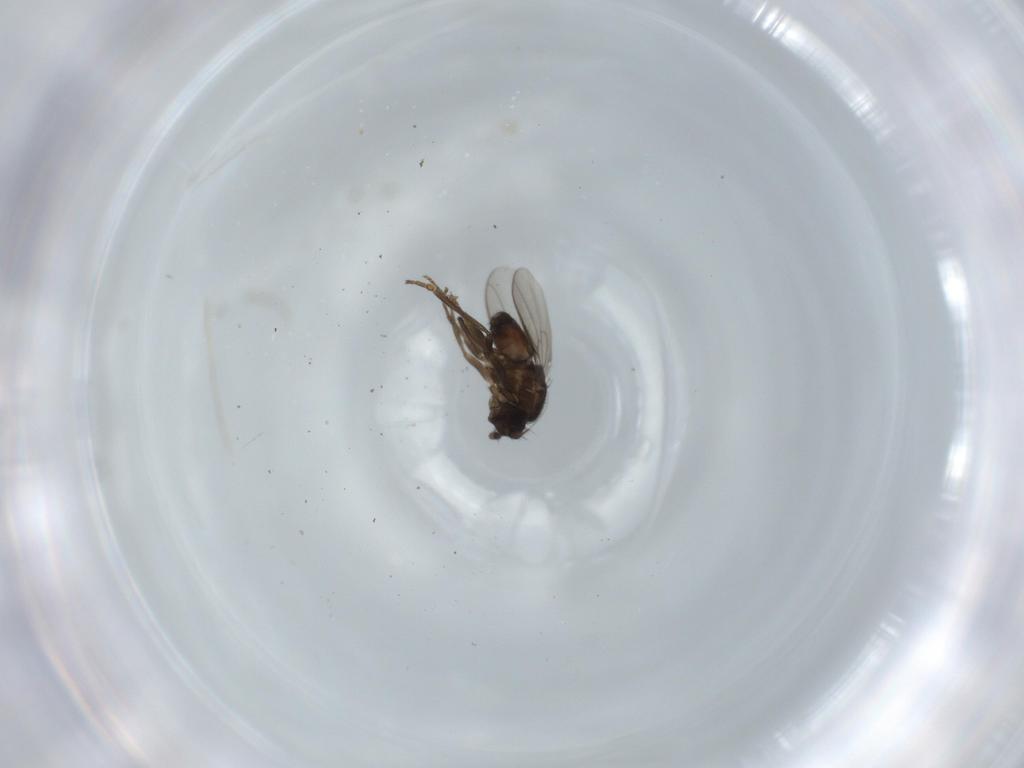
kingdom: Animalia
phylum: Arthropoda
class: Insecta
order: Diptera
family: Sphaeroceridae
